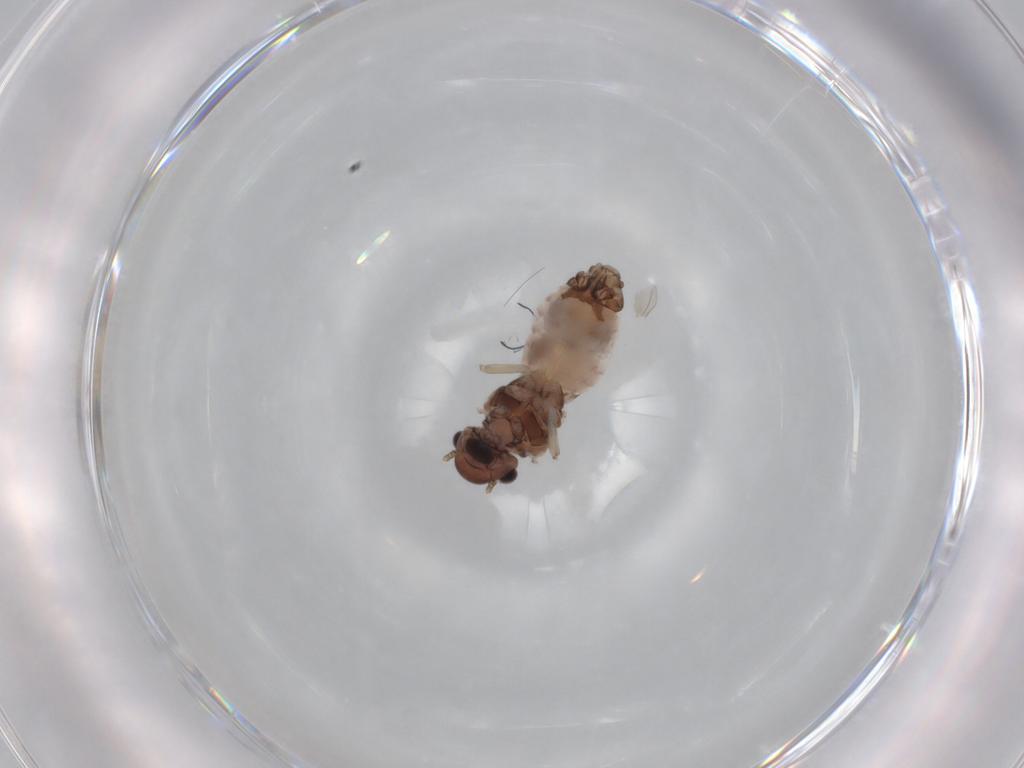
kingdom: Animalia
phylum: Arthropoda
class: Insecta
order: Psocodea
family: Peripsocidae
